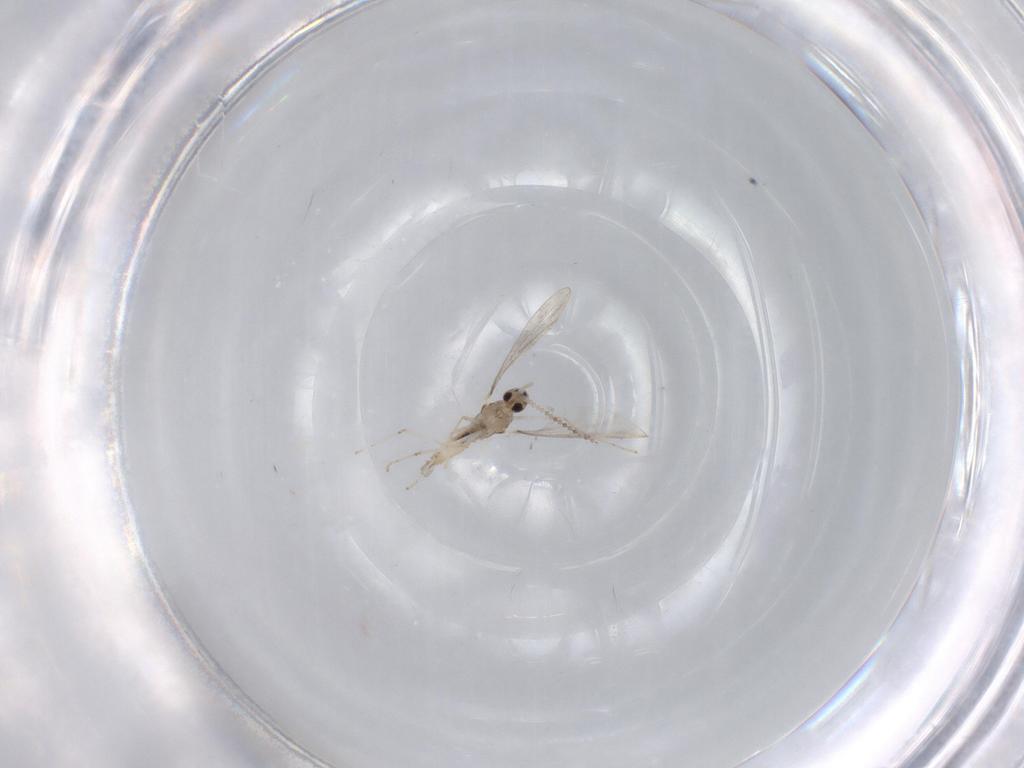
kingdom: Animalia
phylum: Arthropoda
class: Insecta
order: Diptera
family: Cecidomyiidae
